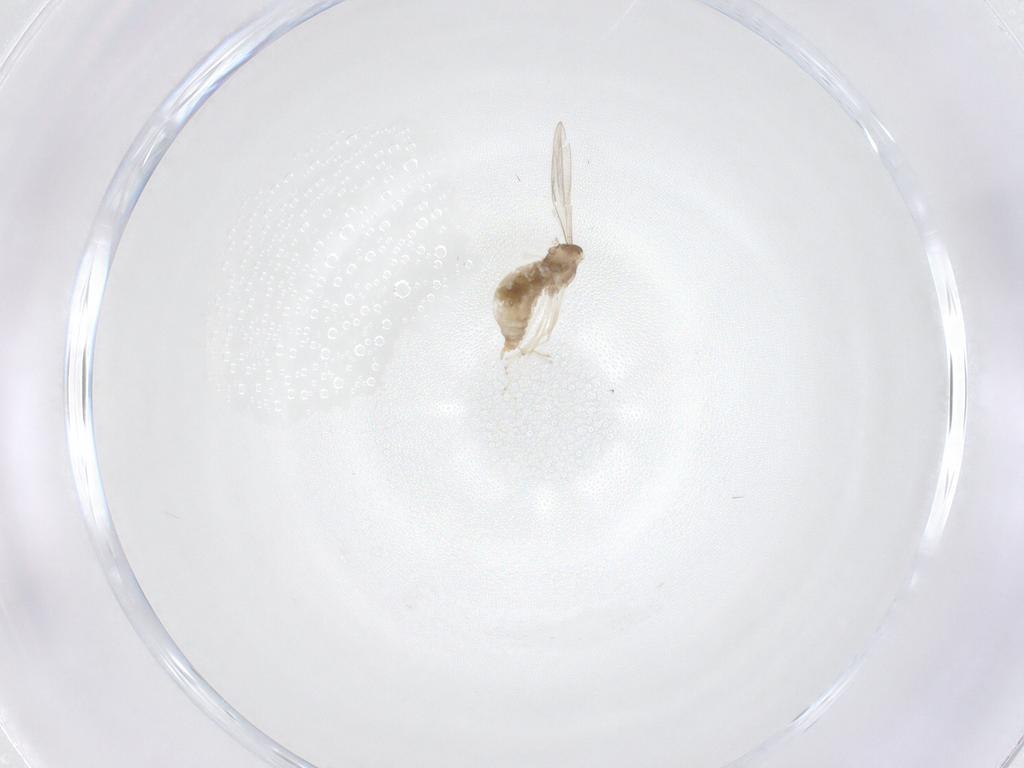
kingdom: Animalia
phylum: Arthropoda
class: Insecta
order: Diptera
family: Cecidomyiidae
